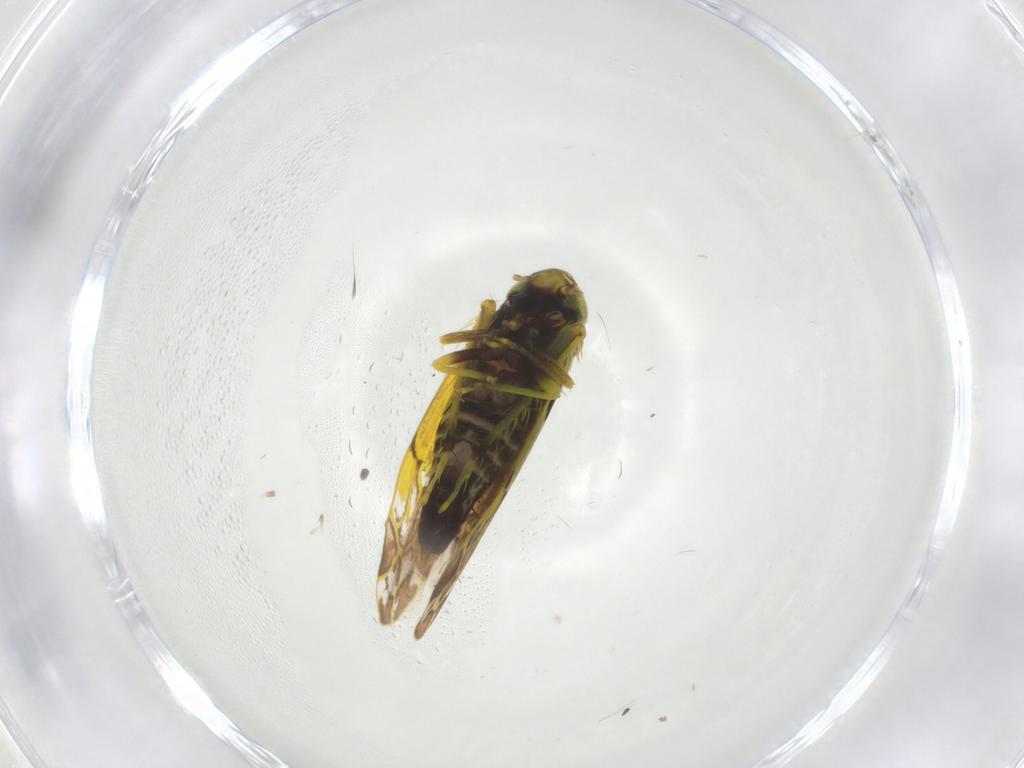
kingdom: Animalia
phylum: Arthropoda
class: Insecta
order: Hemiptera
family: Cicadellidae
